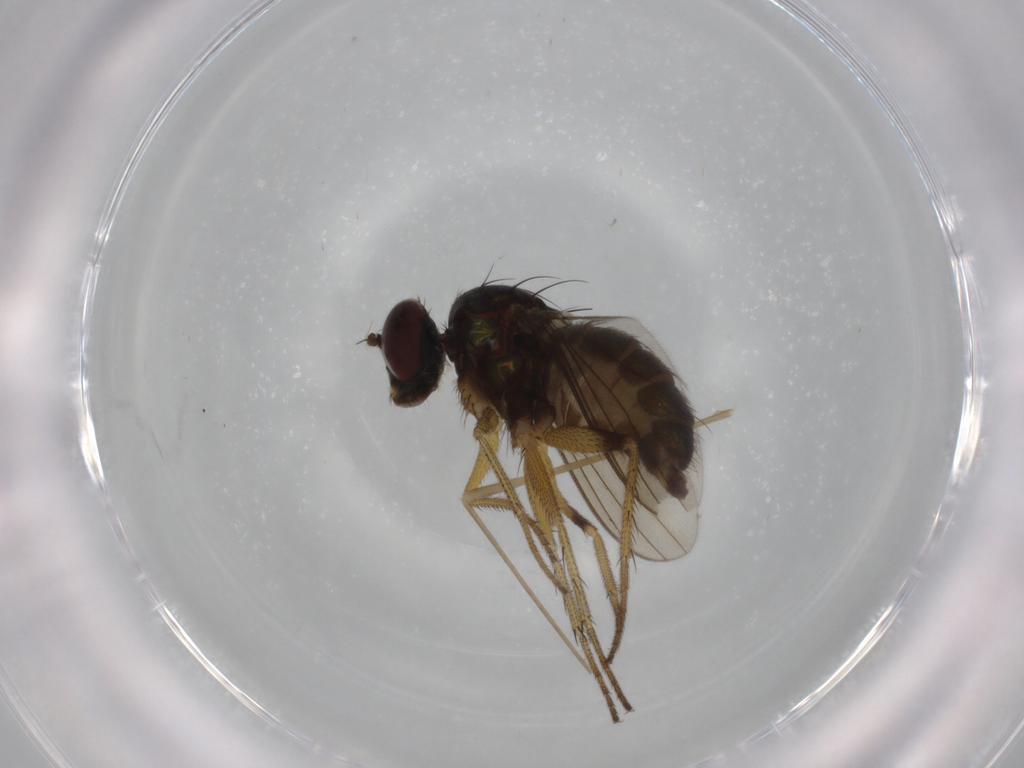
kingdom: Animalia
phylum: Arthropoda
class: Insecta
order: Diptera
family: Dolichopodidae
